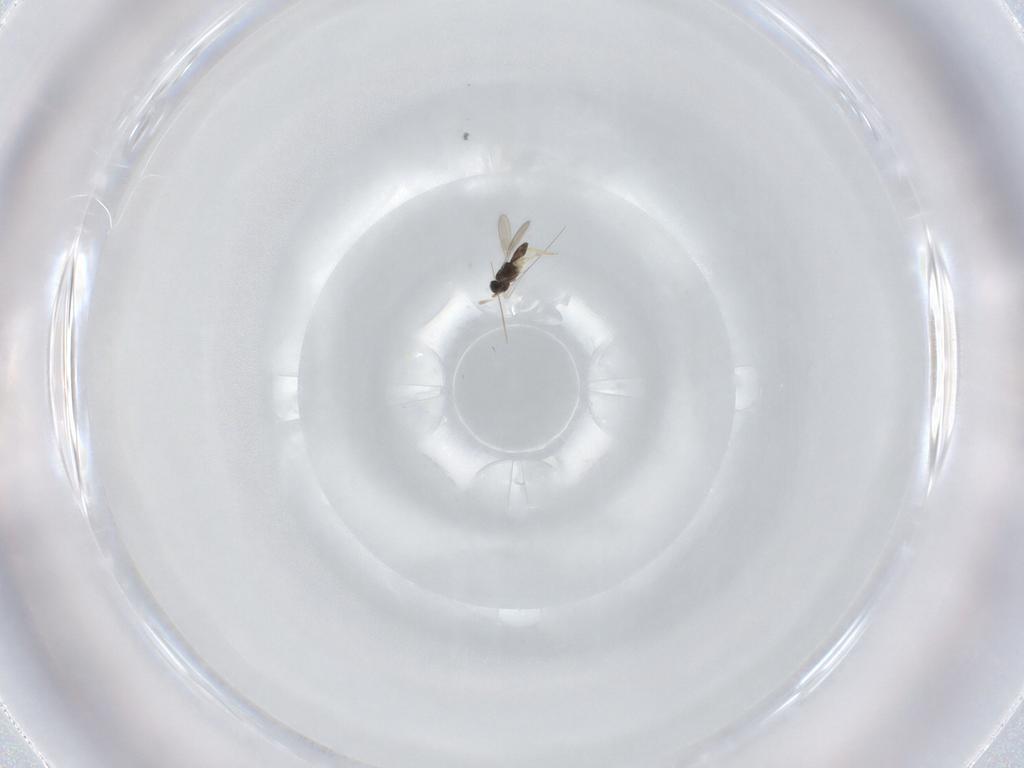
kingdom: Animalia
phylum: Arthropoda
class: Insecta
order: Hymenoptera
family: Scelionidae
